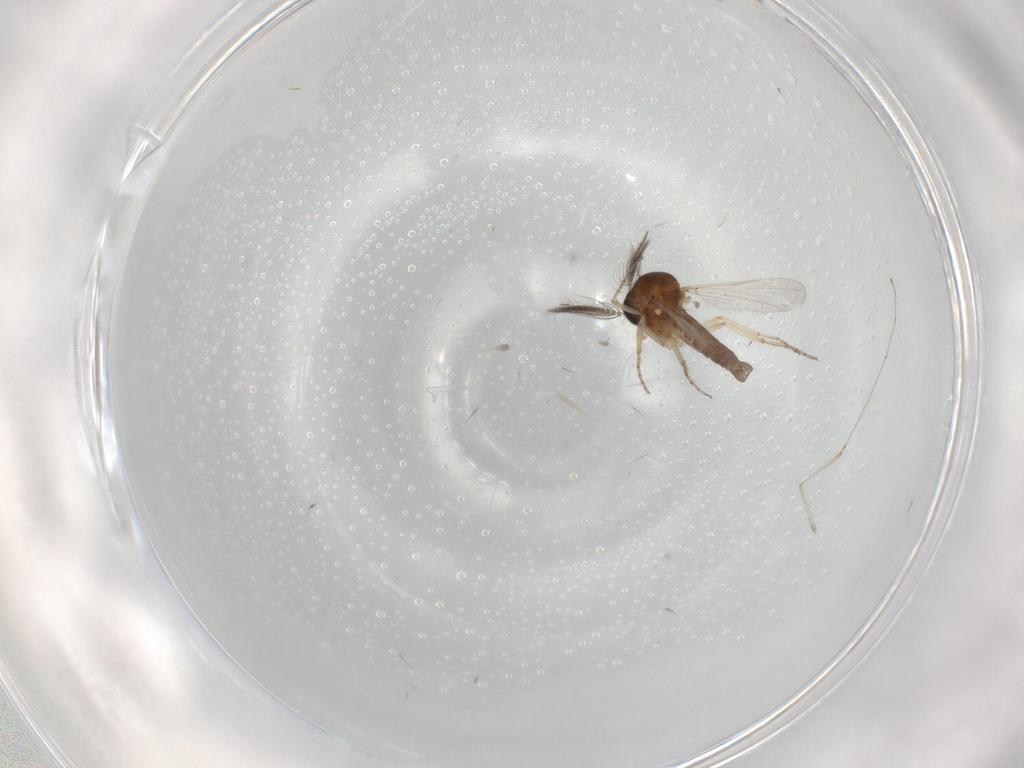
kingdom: Animalia
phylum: Arthropoda
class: Insecta
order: Diptera
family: Ceratopogonidae
